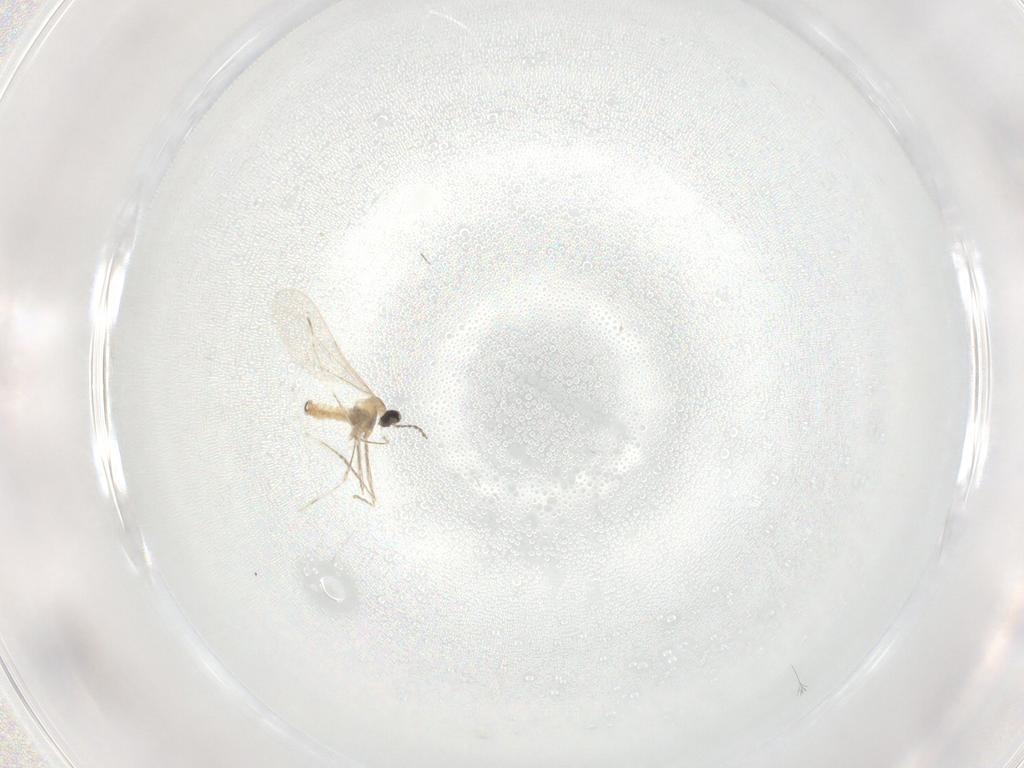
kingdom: Animalia
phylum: Arthropoda
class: Insecta
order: Diptera
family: Cecidomyiidae
